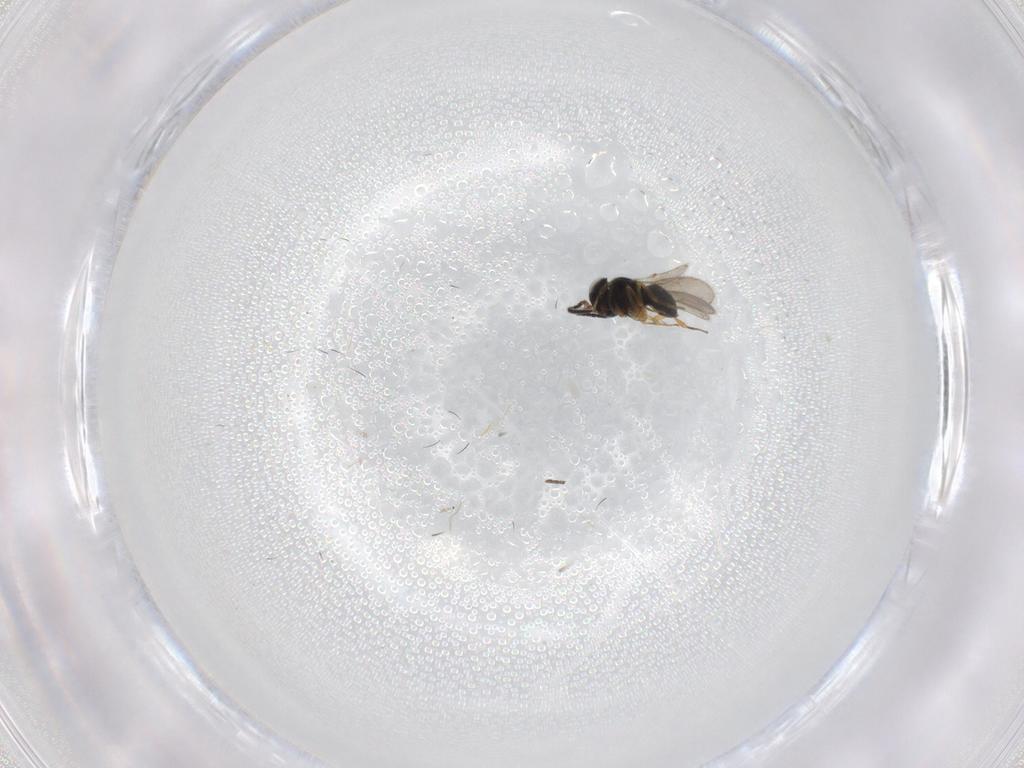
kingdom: Animalia
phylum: Arthropoda
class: Insecta
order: Hymenoptera
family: Scelionidae
